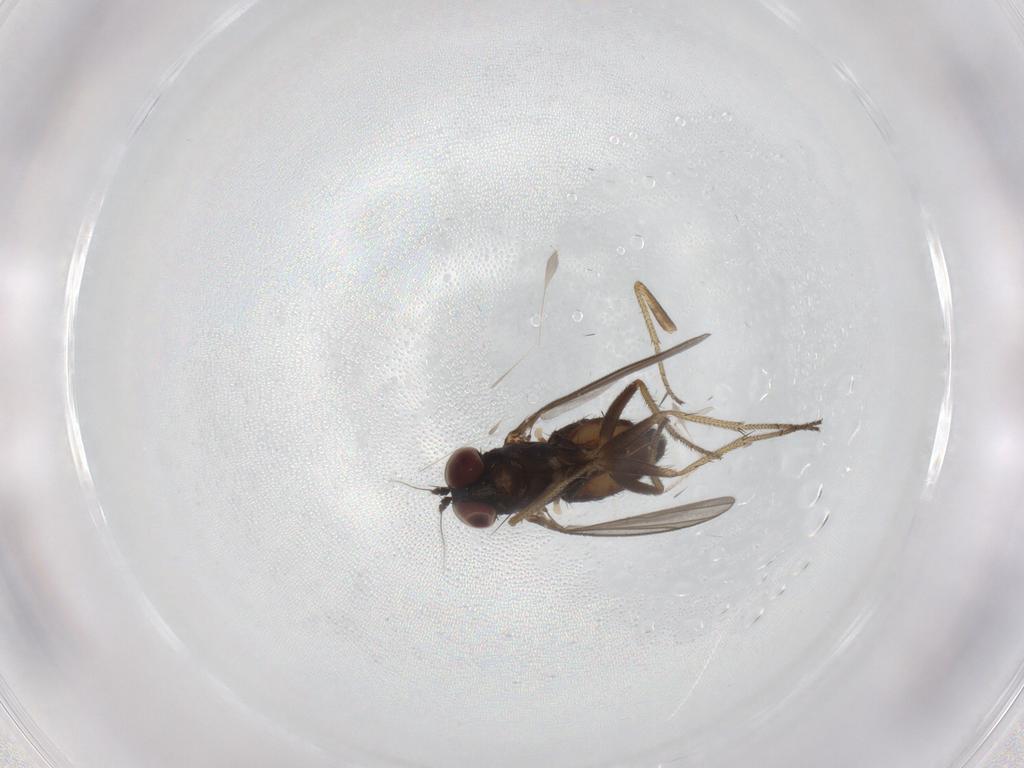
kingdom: Animalia
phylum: Arthropoda
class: Insecta
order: Diptera
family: Dolichopodidae
